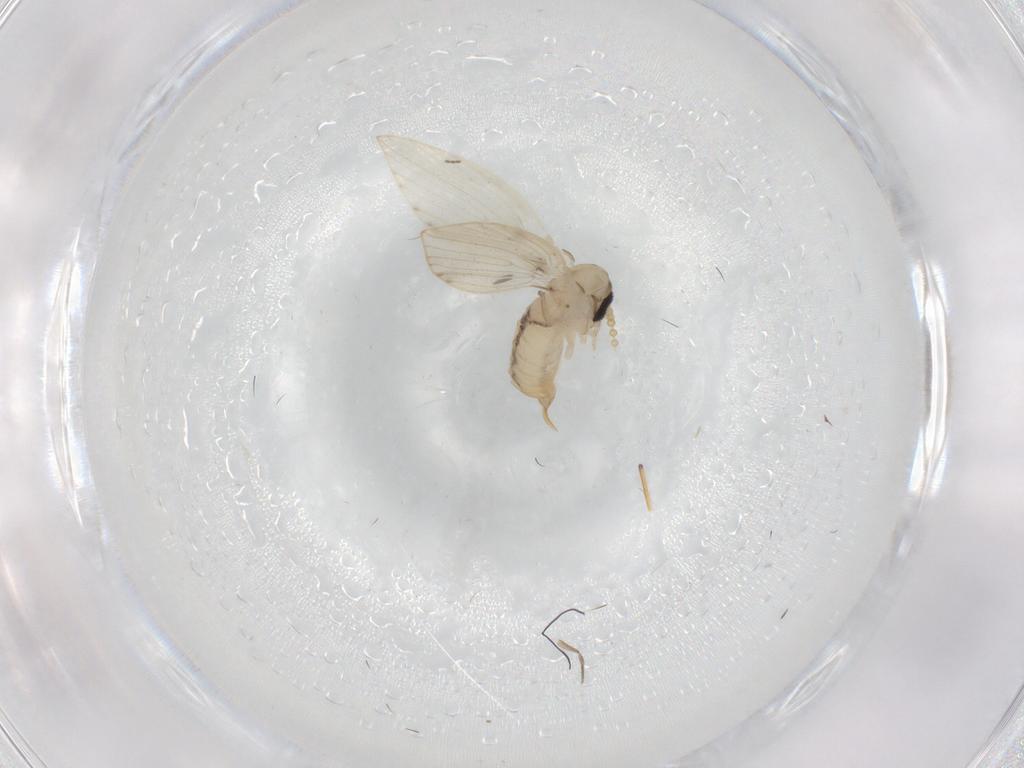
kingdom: Animalia
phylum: Arthropoda
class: Insecta
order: Diptera
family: Psychodidae
